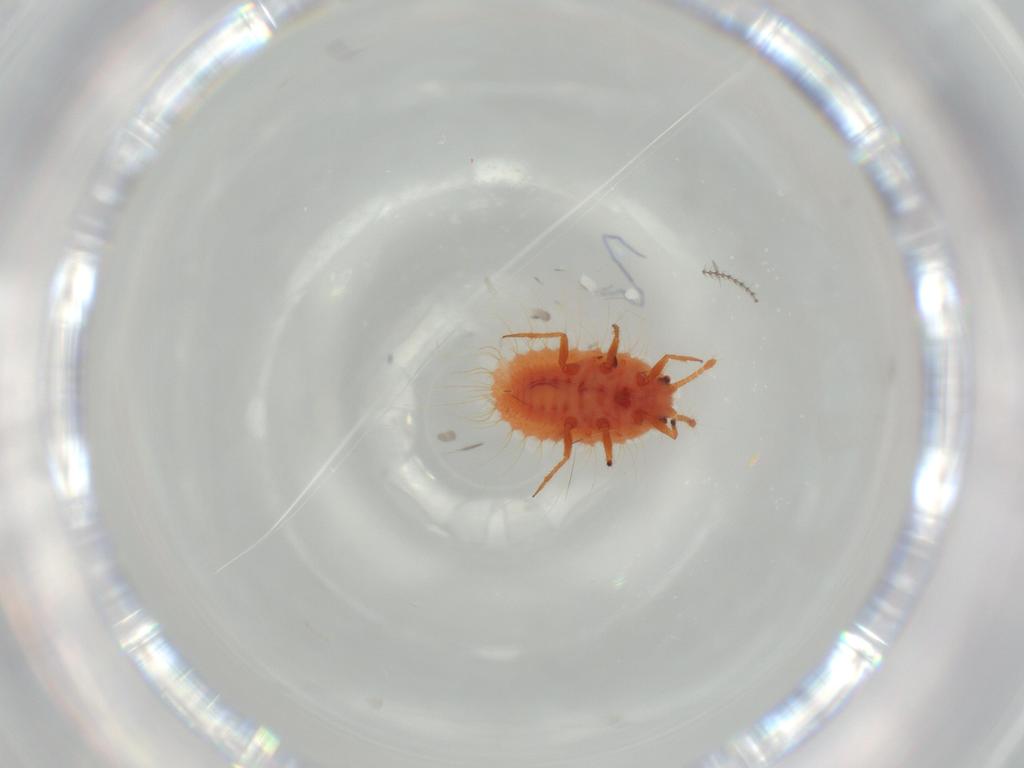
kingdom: Animalia
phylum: Arthropoda
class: Insecta
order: Hemiptera
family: Coccoidea_incertae_sedis
